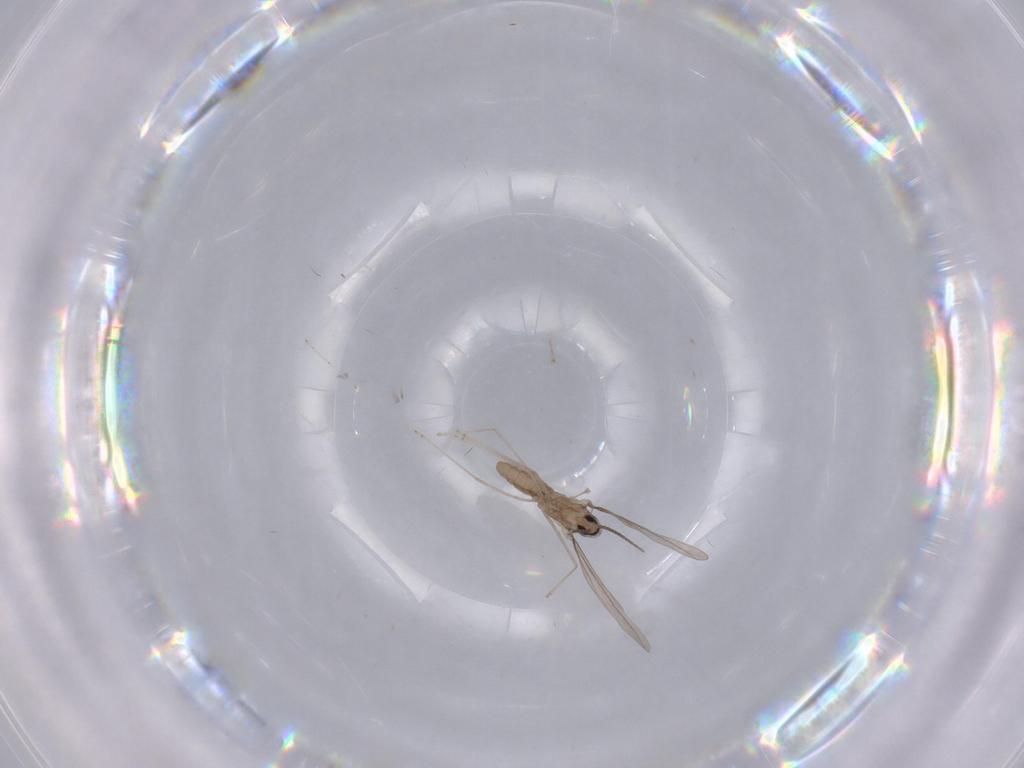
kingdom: Animalia
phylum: Arthropoda
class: Insecta
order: Diptera
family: Cecidomyiidae
